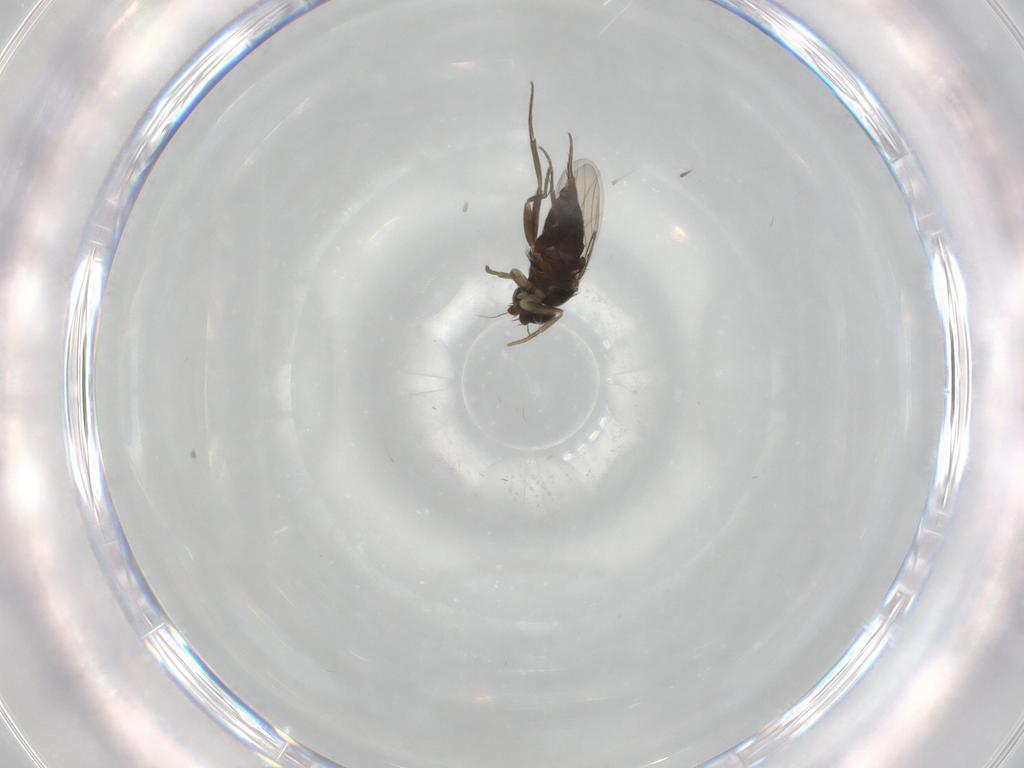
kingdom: Animalia
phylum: Arthropoda
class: Insecta
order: Diptera
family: Phoridae
